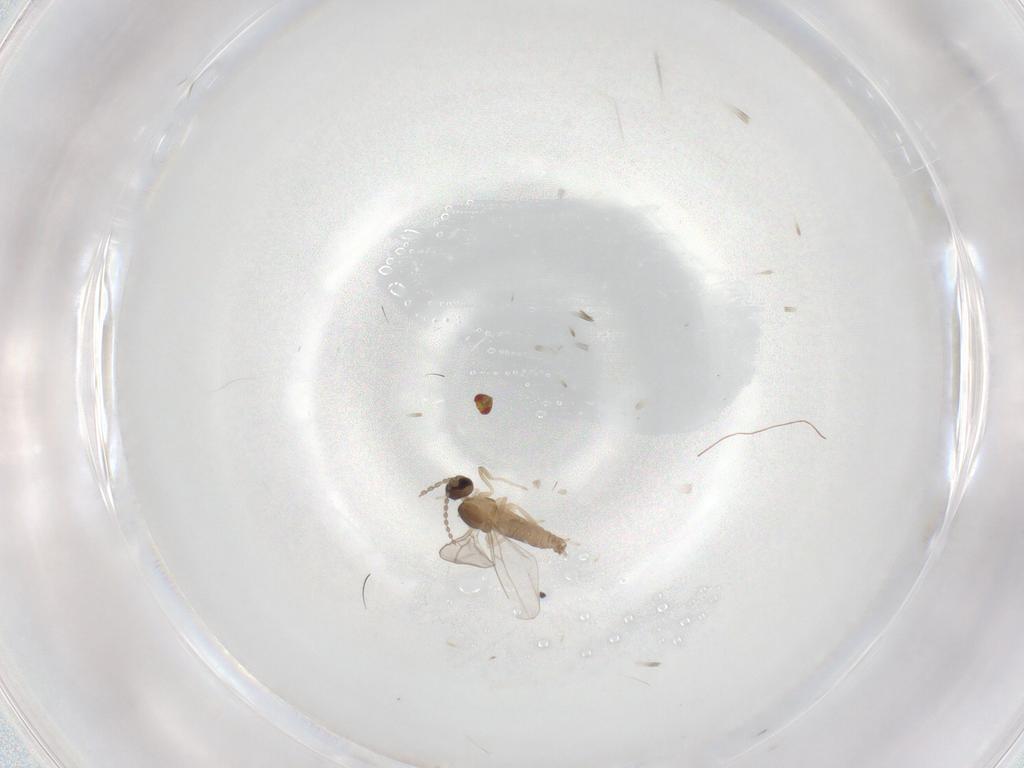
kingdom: Animalia
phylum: Arthropoda
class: Insecta
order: Diptera
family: Cecidomyiidae
